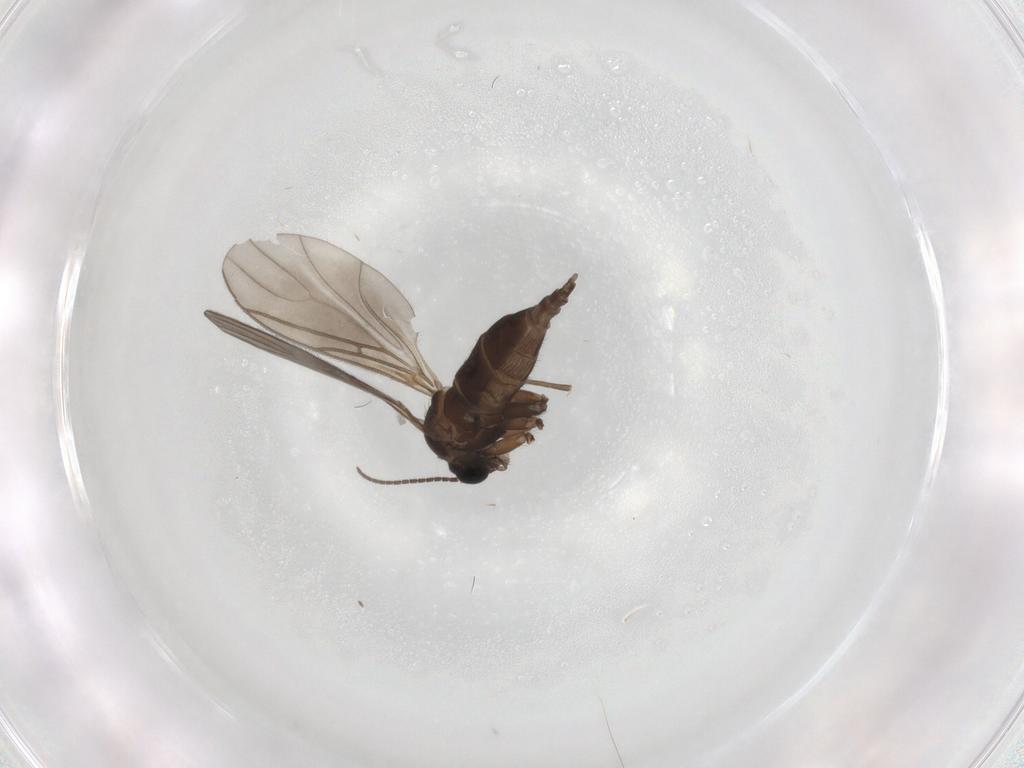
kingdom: Animalia
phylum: Arthropoda
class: Insecta
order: Diptera
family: Sciaridae
